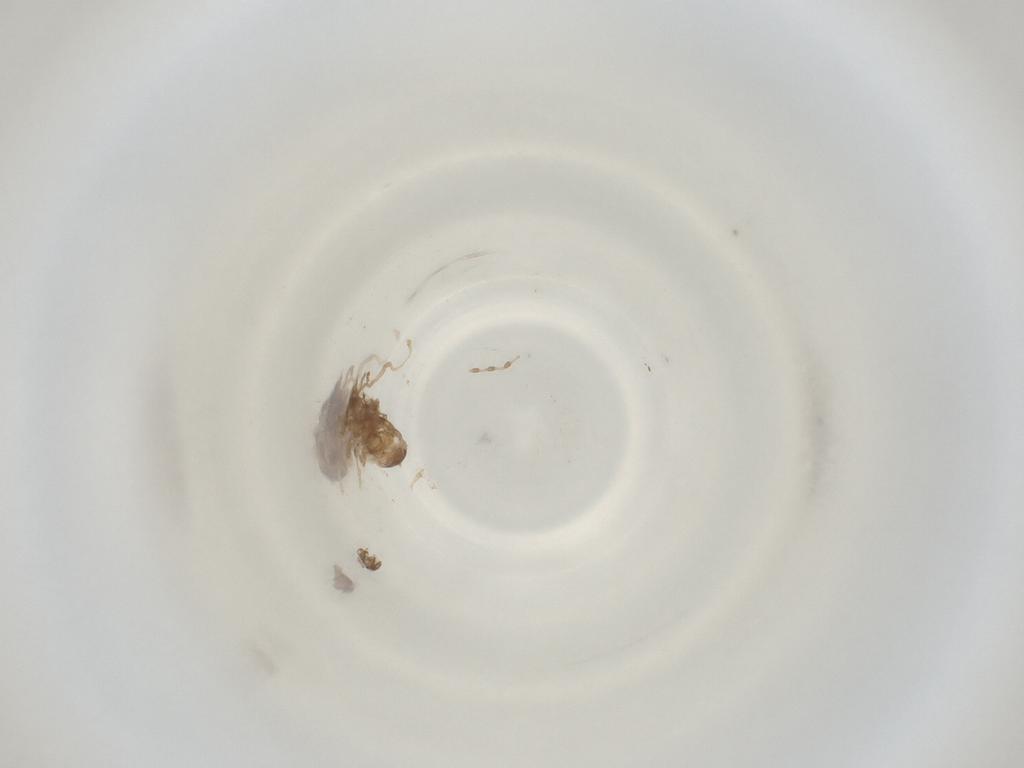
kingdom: Animalia
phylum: Arthropoda
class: Insecta
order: Diptera
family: Cecidomyiidae
